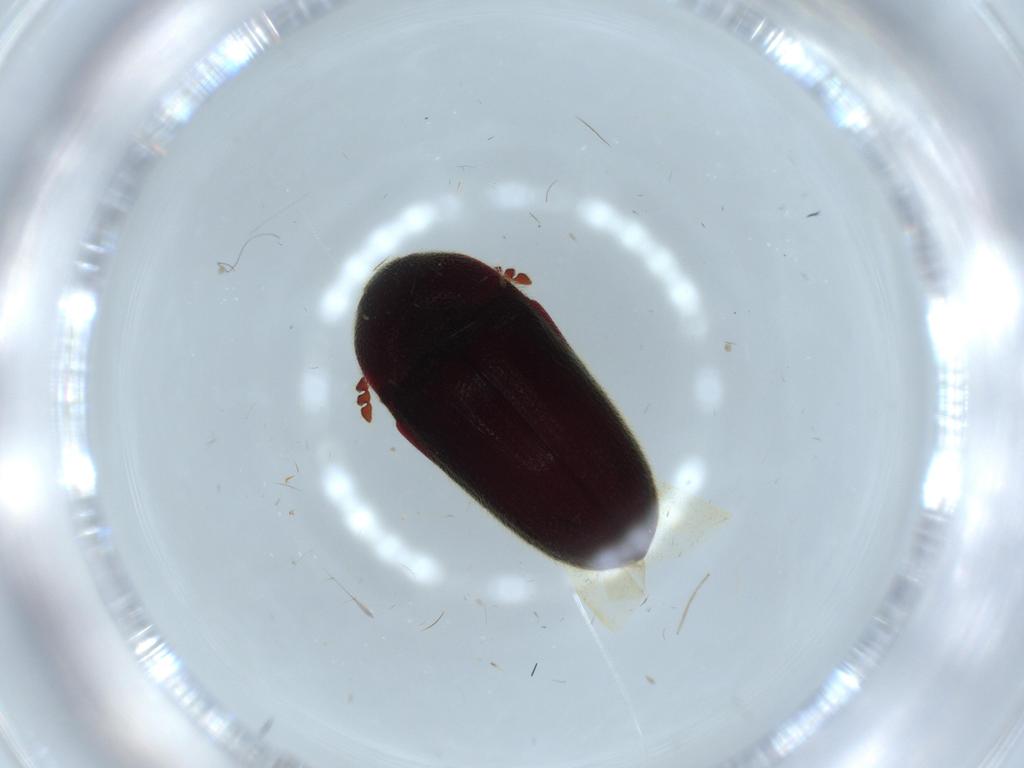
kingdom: Animalia
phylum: Arthropoda
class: Insecta
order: Coleoptera
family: Throscidae
